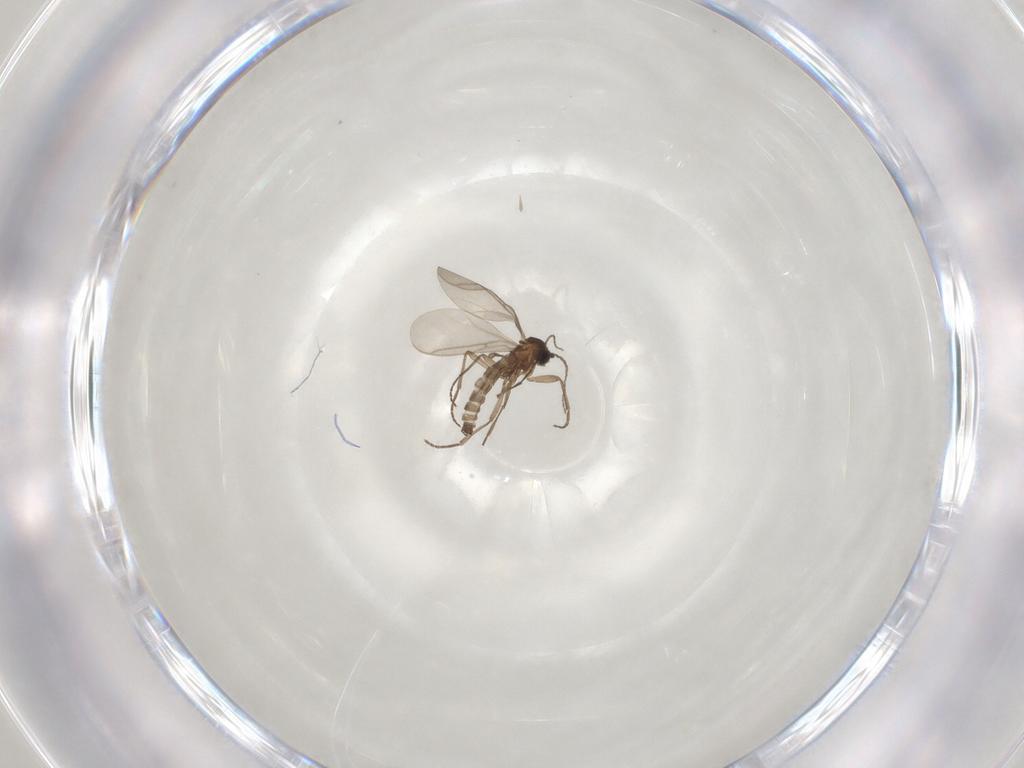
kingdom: Animalia
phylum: Arthropoda
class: Insecta
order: Diptera
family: Sciaridae
